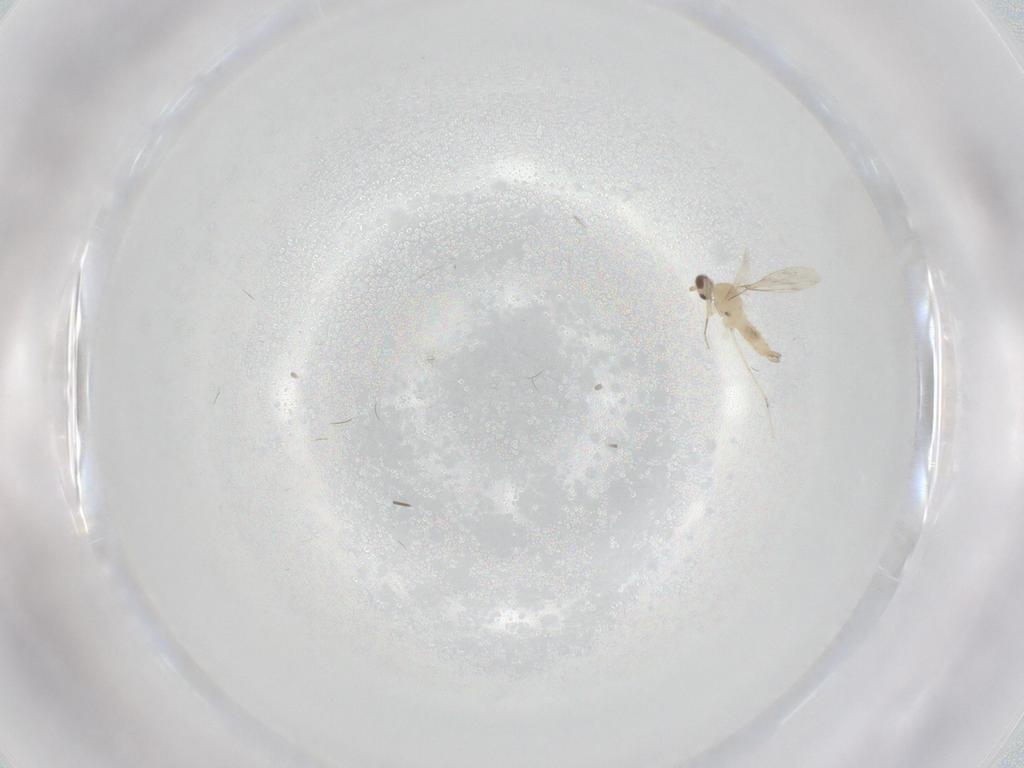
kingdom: Animalia
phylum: Arthropoda
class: Insecta
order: Diptera
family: Cecidomyiidae
